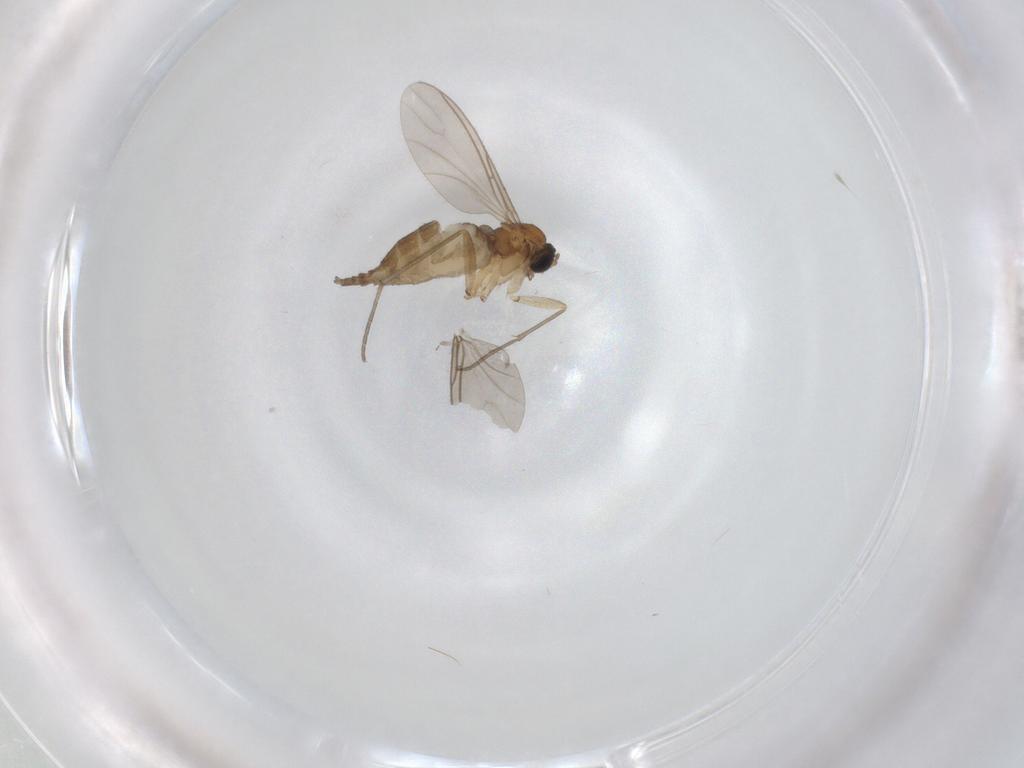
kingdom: Animalia
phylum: Arthropoda
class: Insecta
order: Diptera
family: Sciaridae
